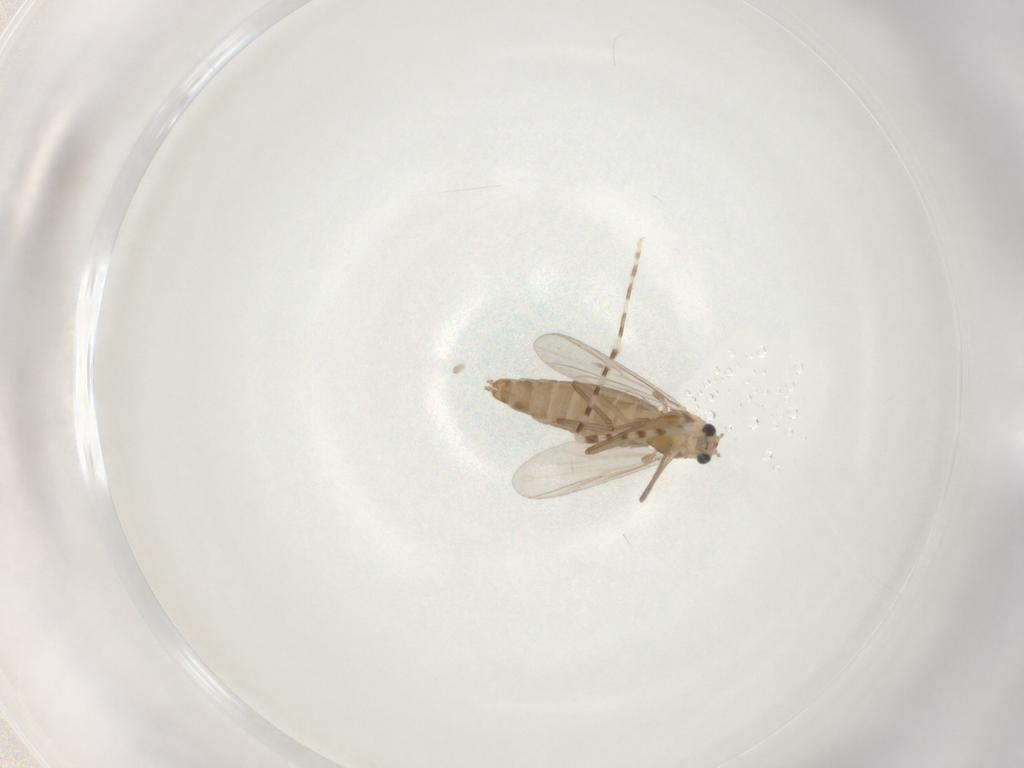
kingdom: Animalia
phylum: Arthropoda
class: Insecta
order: Diptera
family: Chironomidae
